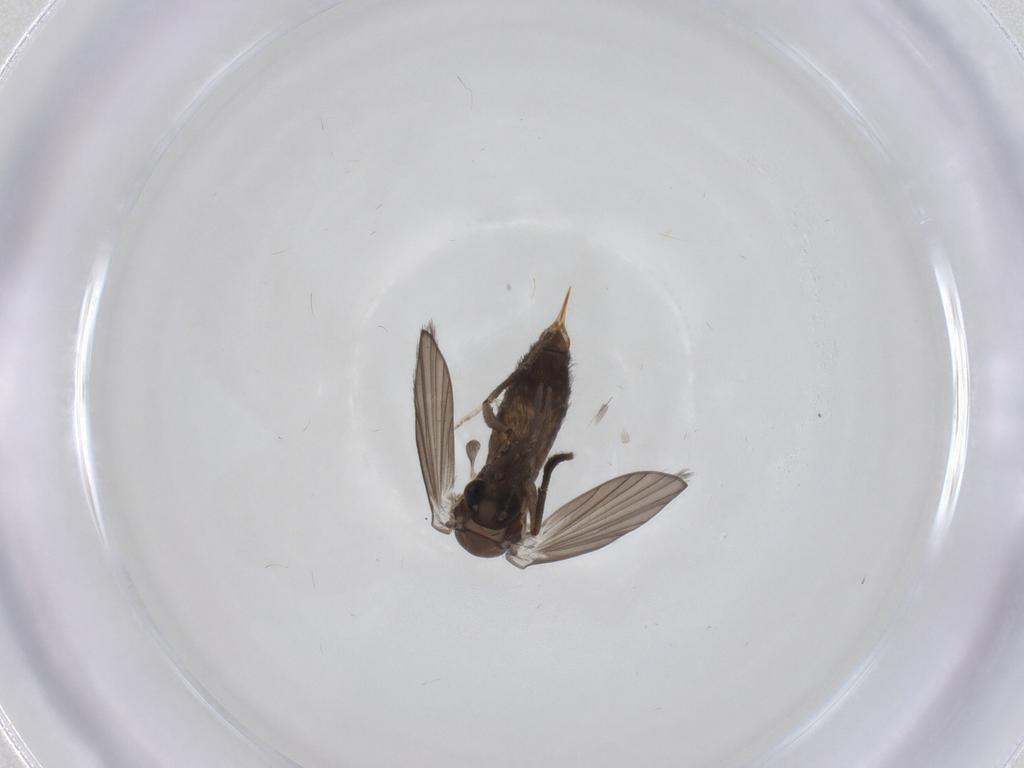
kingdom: Animalia
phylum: Arthropoda
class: Insecta
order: Diptera
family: Psychodidae
